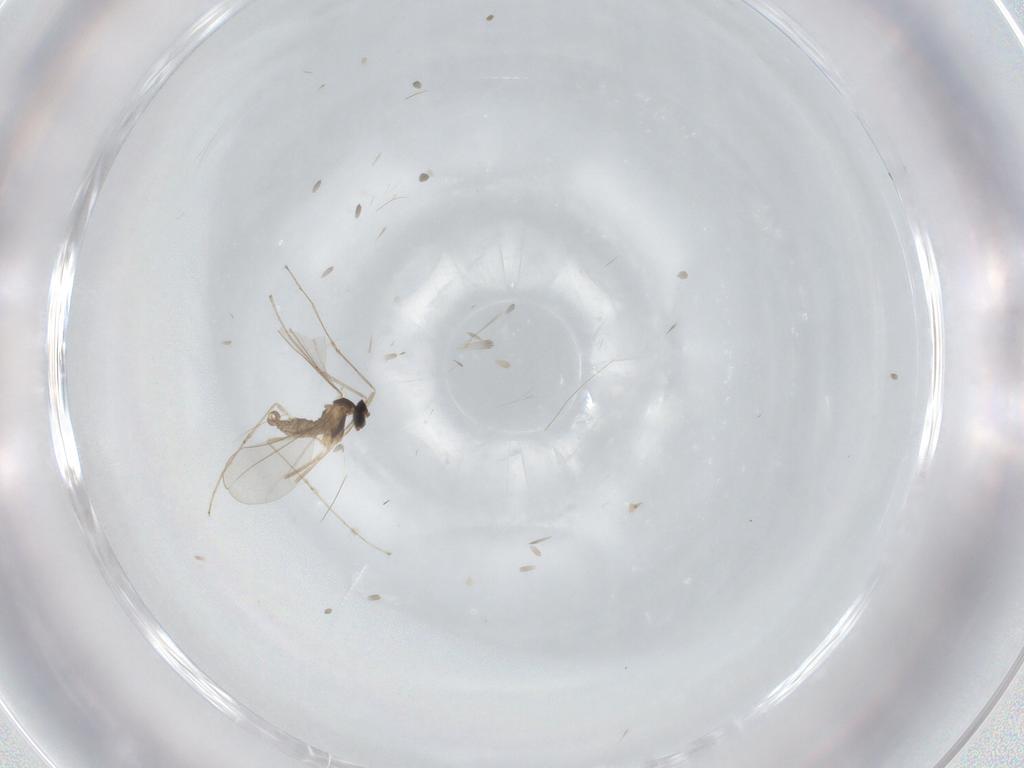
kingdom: Animalia
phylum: Arthropoda
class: Insecta
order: Diptera
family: Cecidomyiidae
